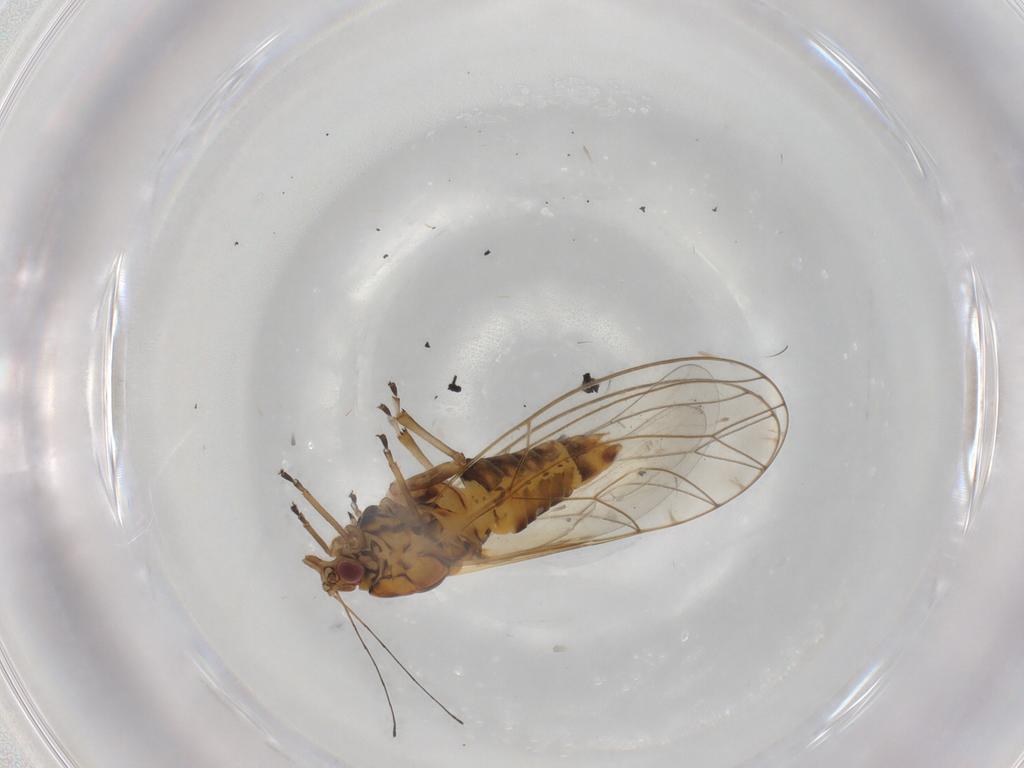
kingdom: Animalia
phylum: Arthropoda
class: Insecta
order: Hemiptera
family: Triozidae
